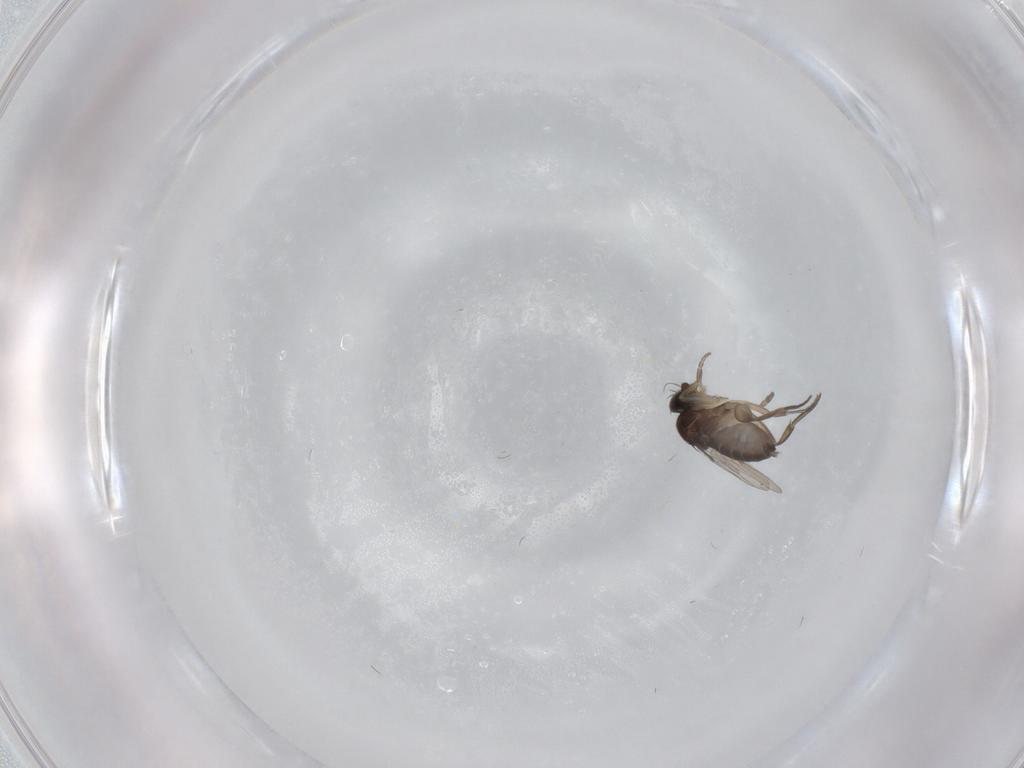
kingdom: Animalia
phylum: Arthropoda
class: Insecta
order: Diptera
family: Phoridae
